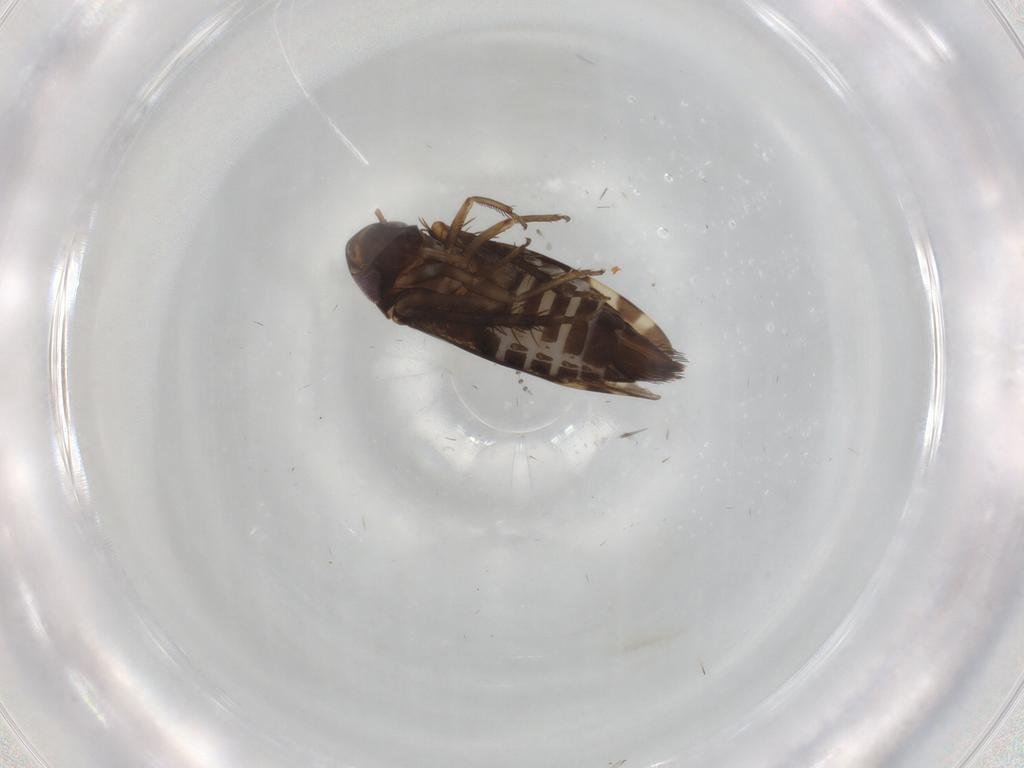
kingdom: Animalia
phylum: Arthropoda
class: Insecta
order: Hemiptera
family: Cicadellidae
